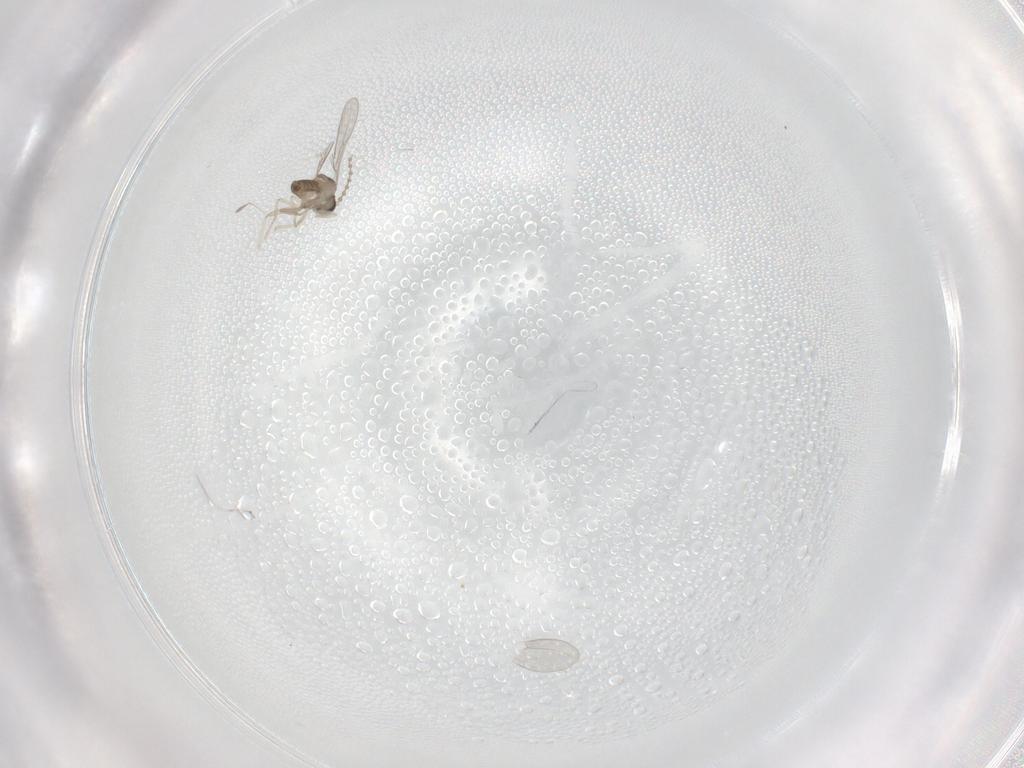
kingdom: Animalia
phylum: Arthropoda
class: Insecta
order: Diptera
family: Cecidomyiidae
